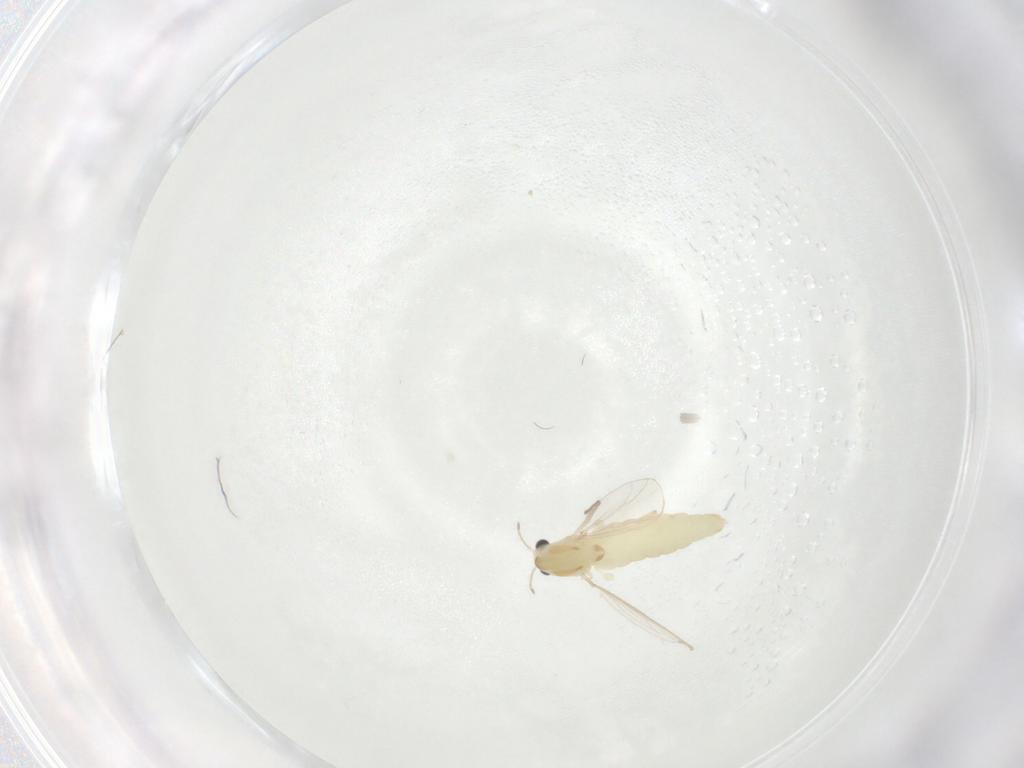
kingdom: Animalia
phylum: Arthropoda
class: Insecta
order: Diptera
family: Chironomidae
